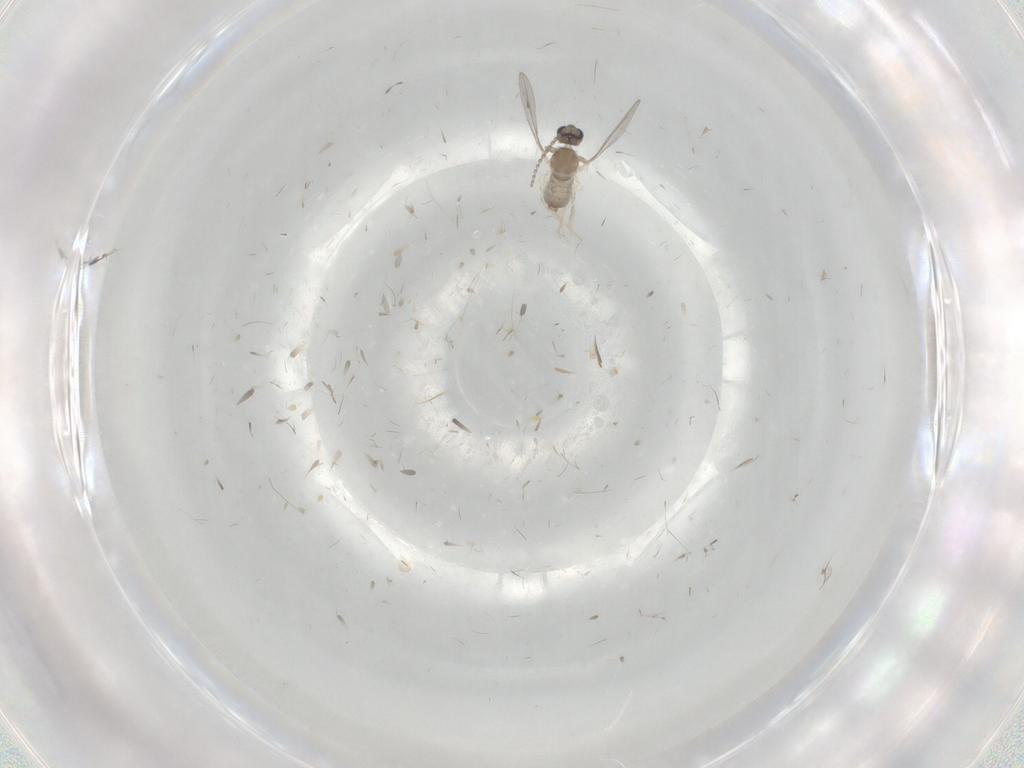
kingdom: Animalia
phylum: Arthropoda
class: Insecta
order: Diptera
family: Cecidomyiidae
